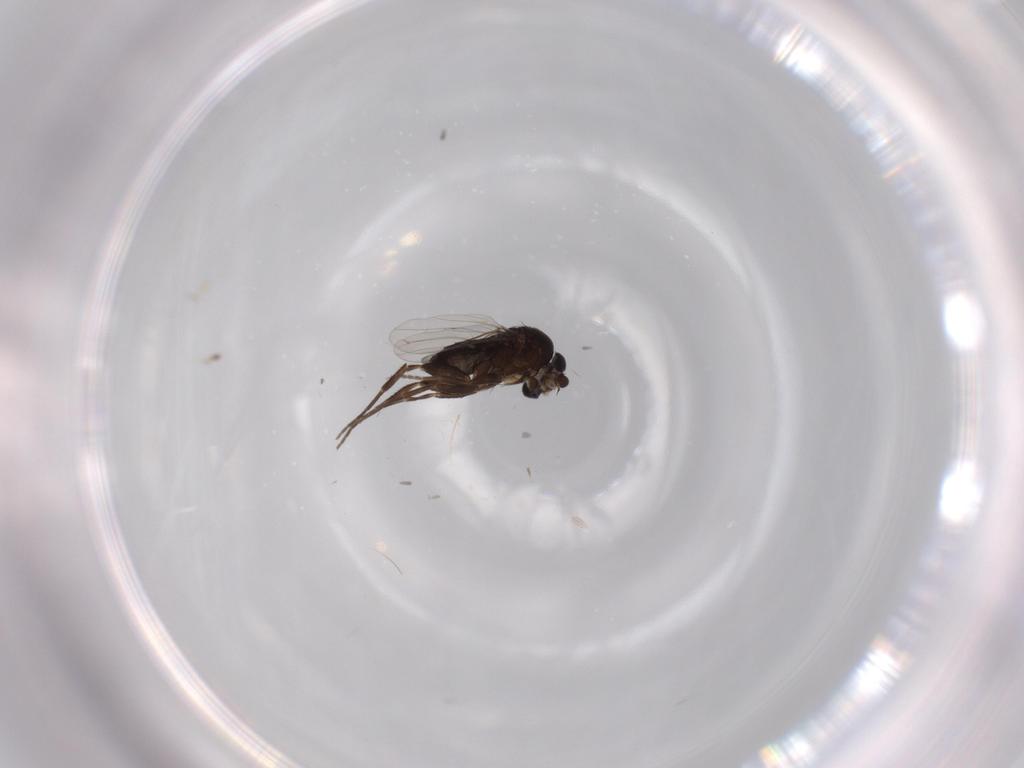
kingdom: Animalia
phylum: Arthropoda
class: Insecta
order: Diptera
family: Phoridae
